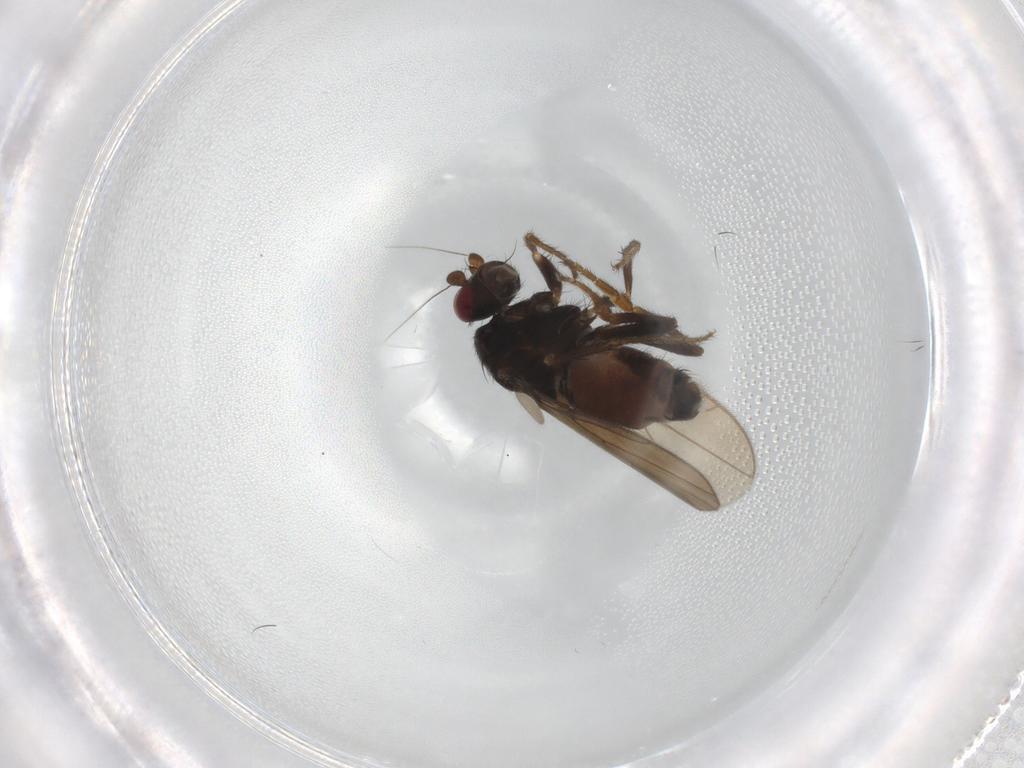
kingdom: Animalia
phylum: Arthropoda
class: Insecta
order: Diptera
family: Sphaeroceridae
